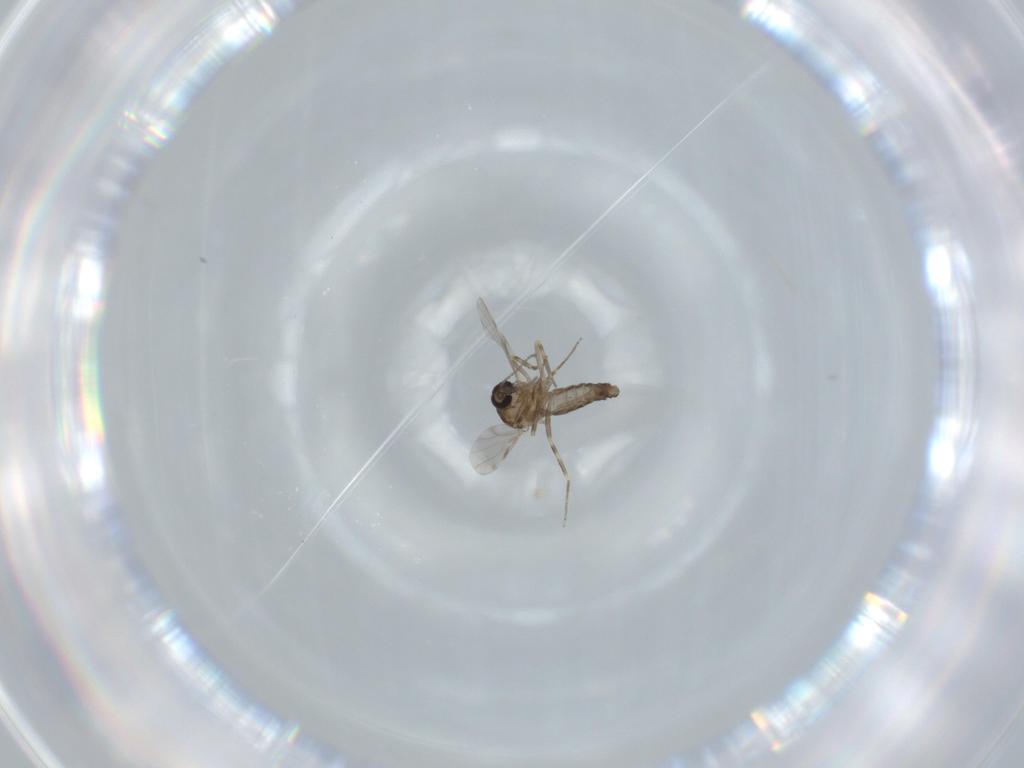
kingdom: Animalia
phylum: Arthropoda
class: Insecta
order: Diptera
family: Ceratopogonidae
